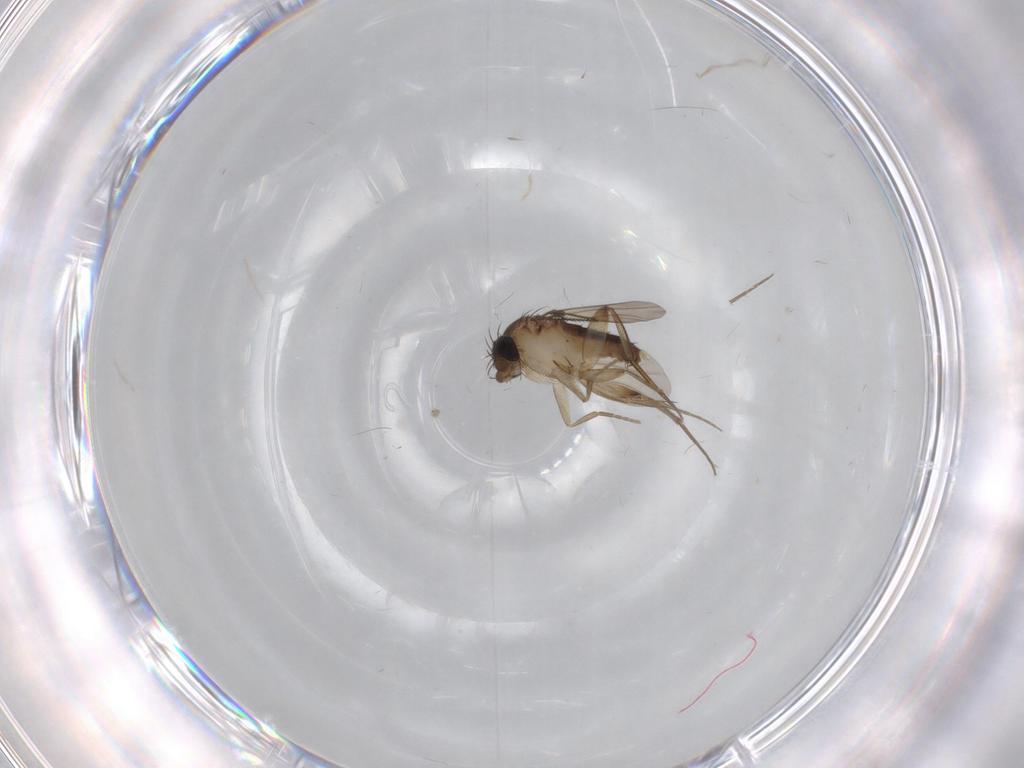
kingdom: Animalia
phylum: Arthropoda
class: Insecta
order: Diptera
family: Phoridae
